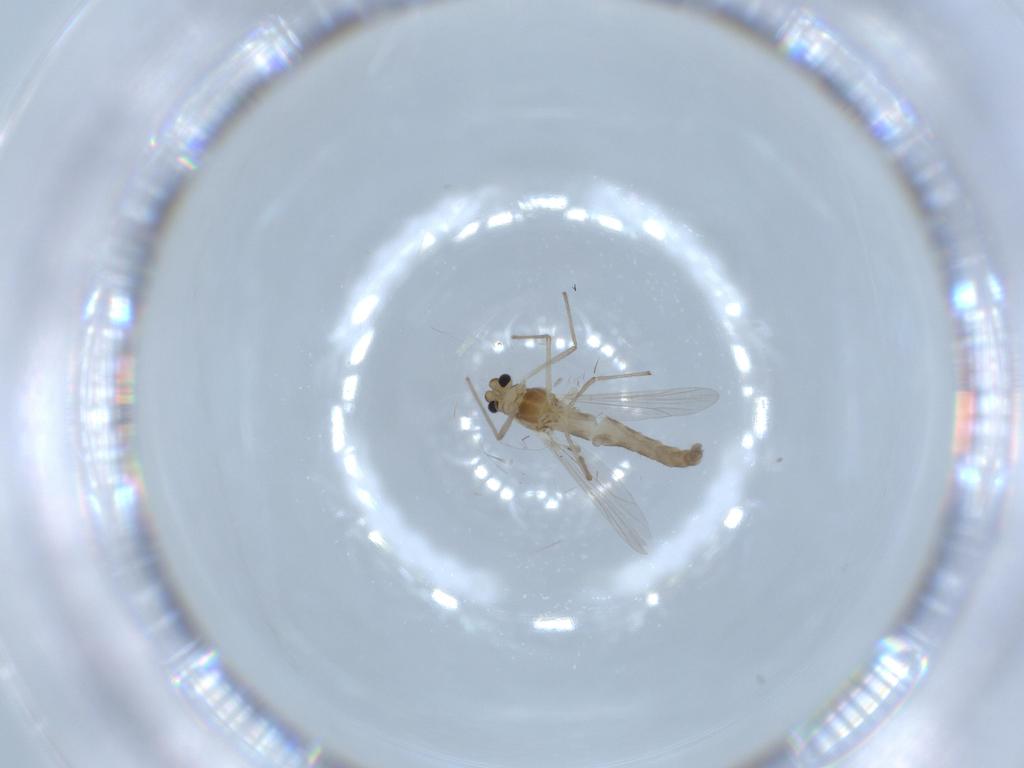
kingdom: Animalia
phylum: Arthropoda
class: Insecta
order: Diptera
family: Chironomidae
